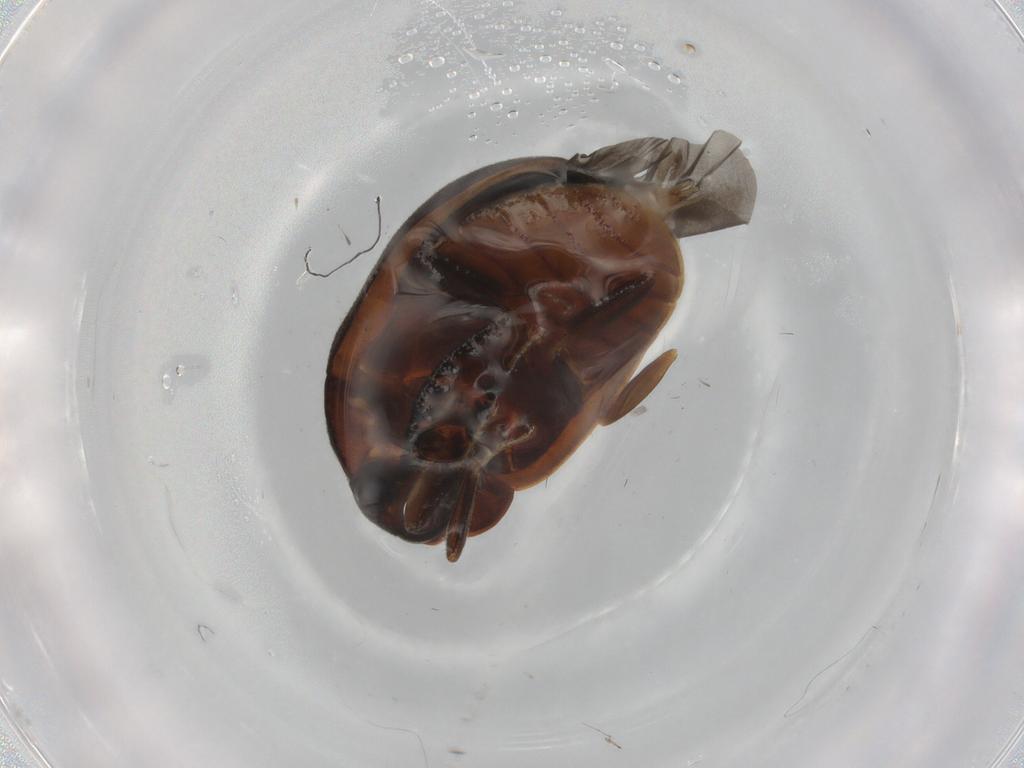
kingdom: Animalia
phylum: Arthropoda
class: Insecta
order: Coleoptera
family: Psephenidae
